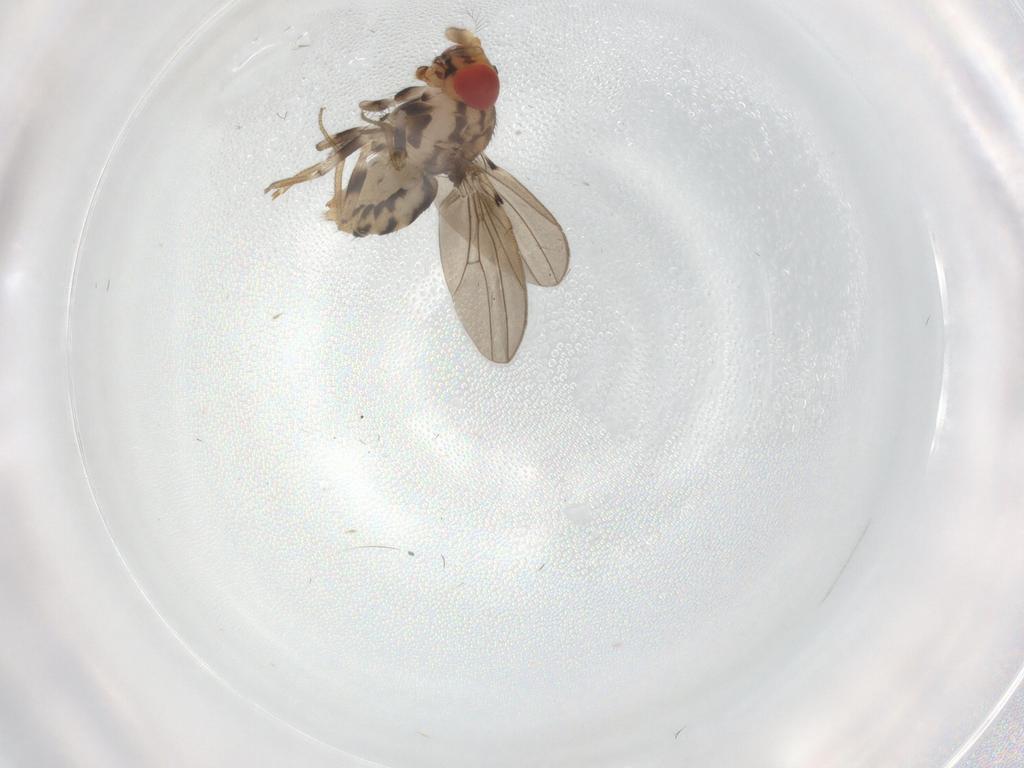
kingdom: Animalia
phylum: Arthropoda
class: Insecta
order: Diptera
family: Drosophilidae
